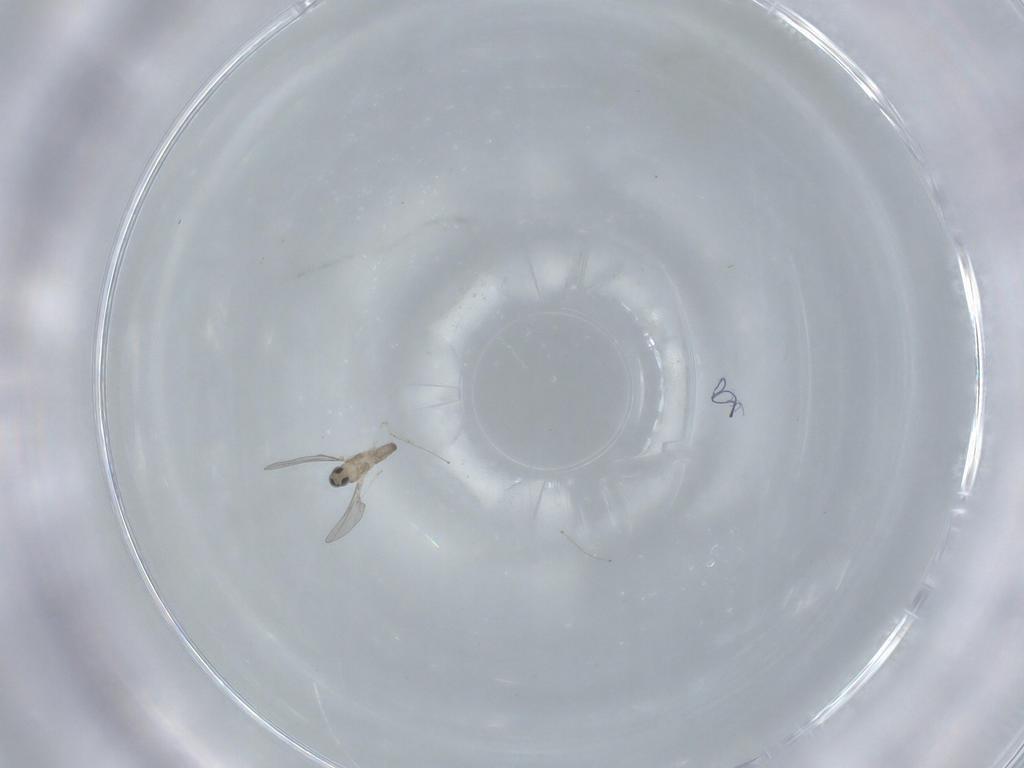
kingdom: Animalia
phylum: Arthropoda
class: Insecta
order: Diptera
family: Cecidomyiidae
